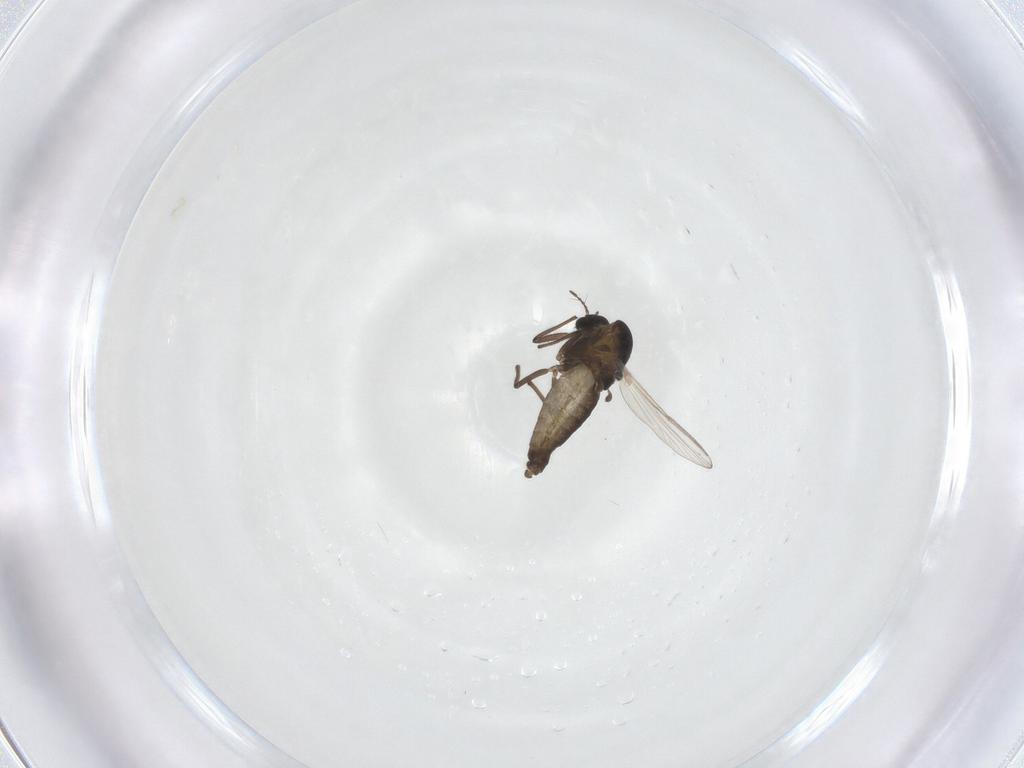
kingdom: Animalia
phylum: Arthropoda
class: Insecta
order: Diptera
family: Chironomidae
